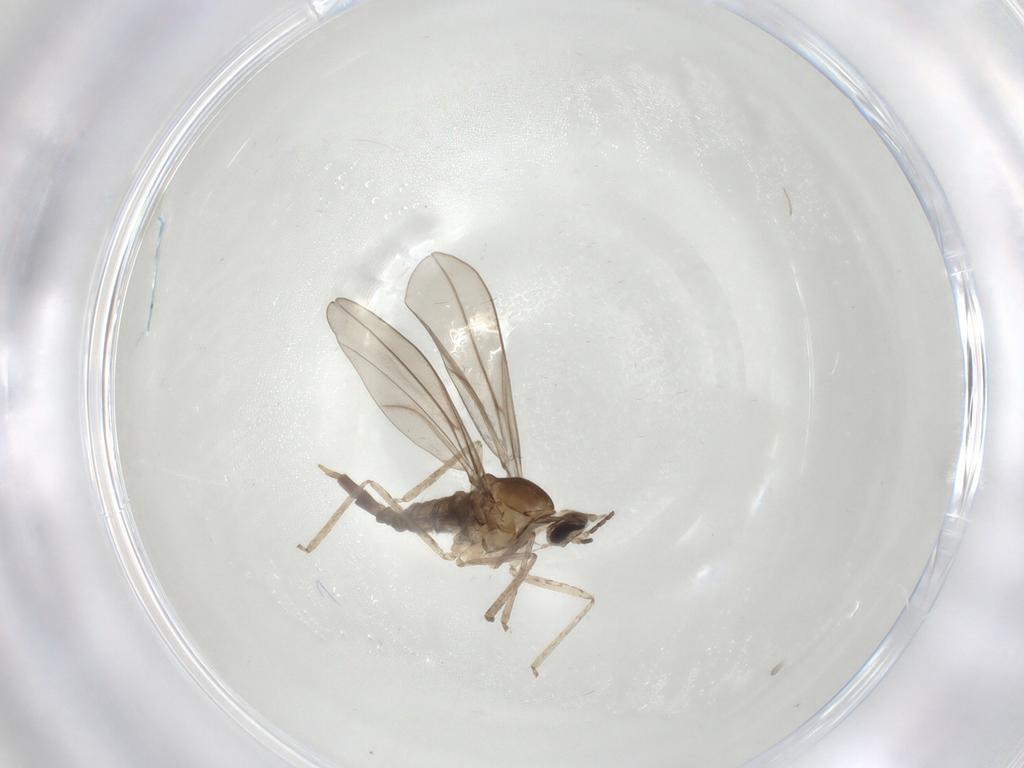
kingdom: Animalia
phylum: Arthropoda
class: Insecta
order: Diptera
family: Cecidomyiidae
